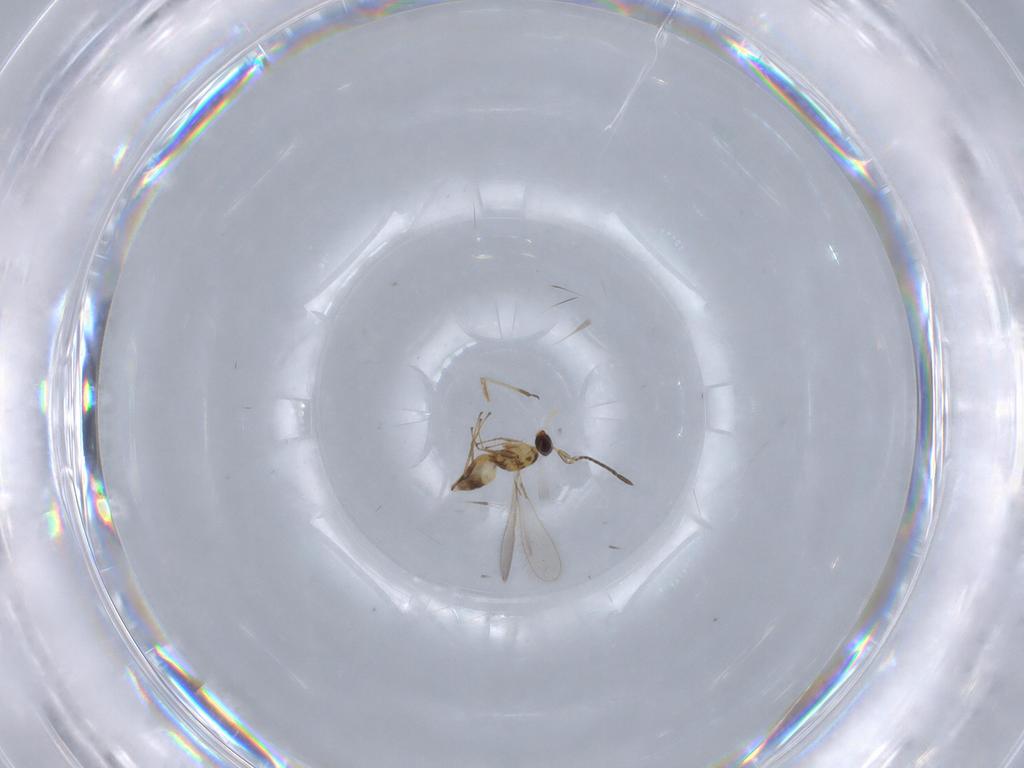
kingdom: Animalia
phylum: Arthropoda
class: Insecta
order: Hymenoptera
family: Mymaridae
